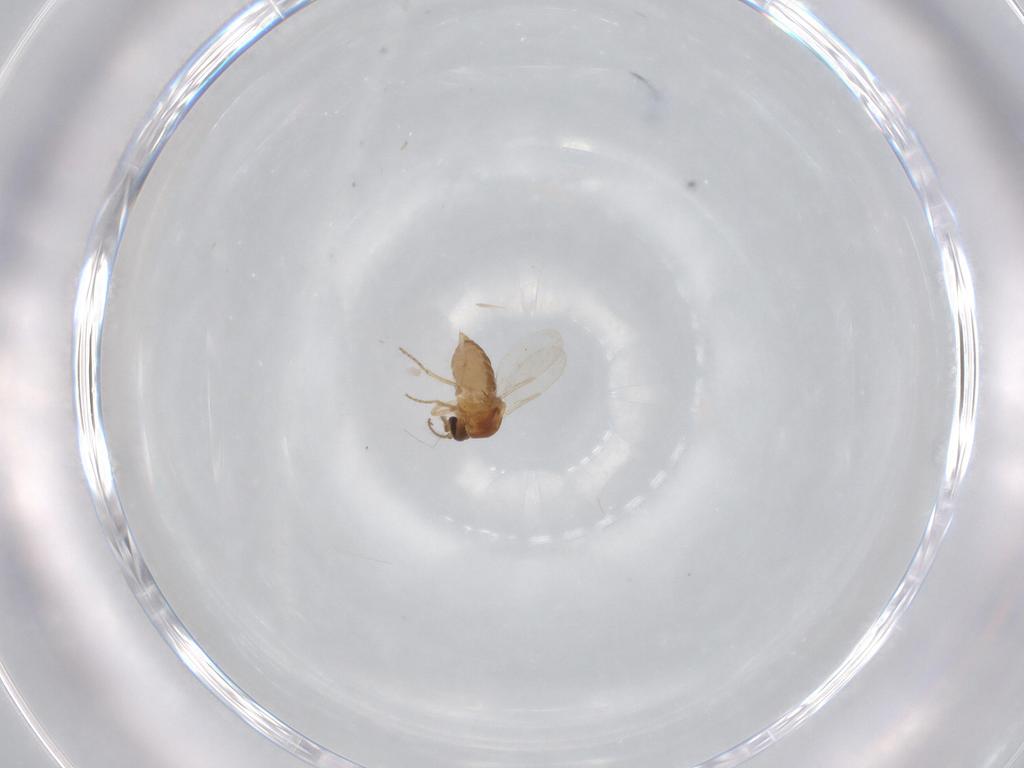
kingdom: Animalia
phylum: Arthropoda
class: Insecta
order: Diptera
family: Ceratopogonidae
